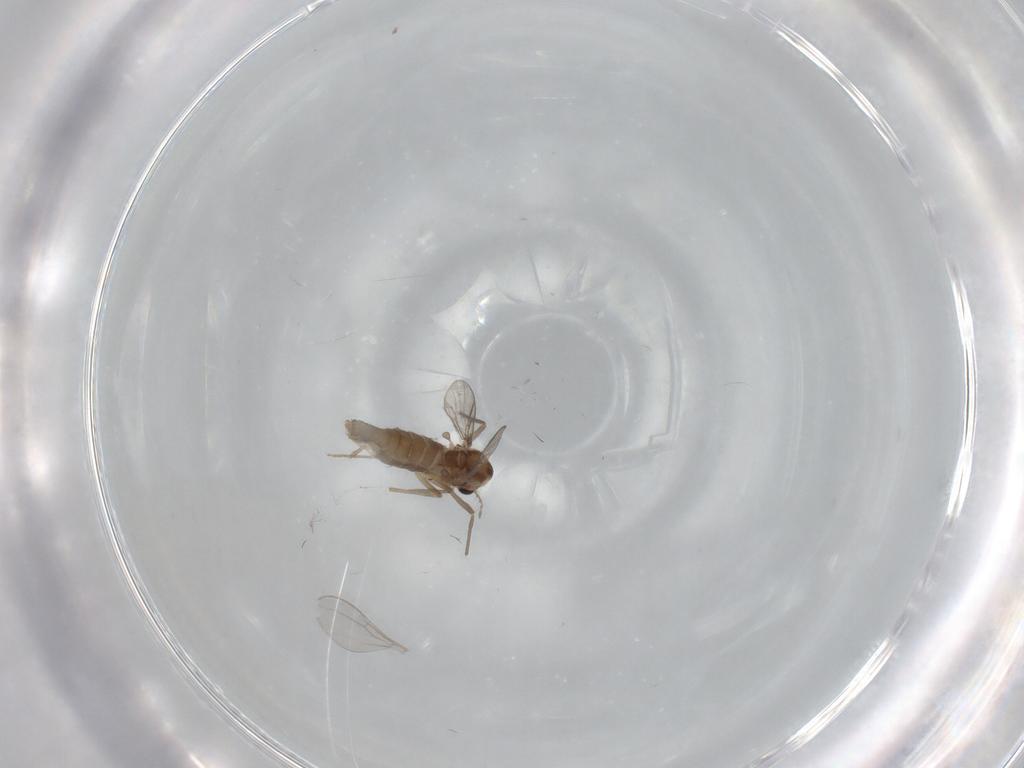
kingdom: Animalia
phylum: Arthropoda
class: Insecta
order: Diptera
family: Chironomidae
